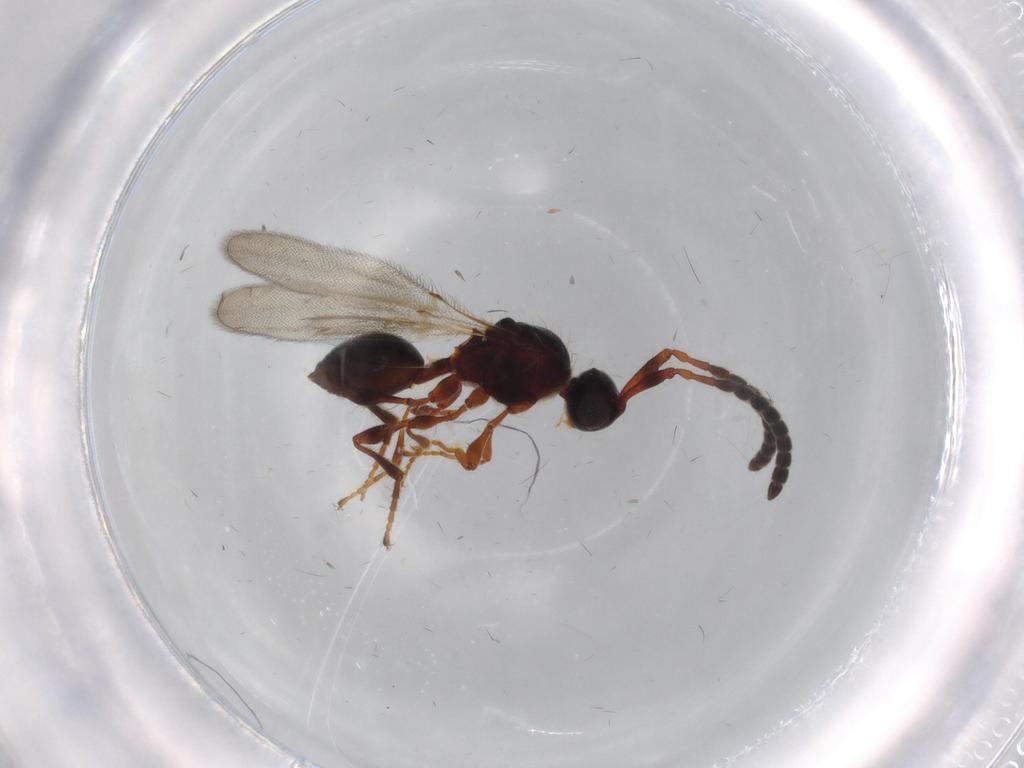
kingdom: Animalia
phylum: Arthropoda
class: Insecta
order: Hymenoptera
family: Diapriidae
